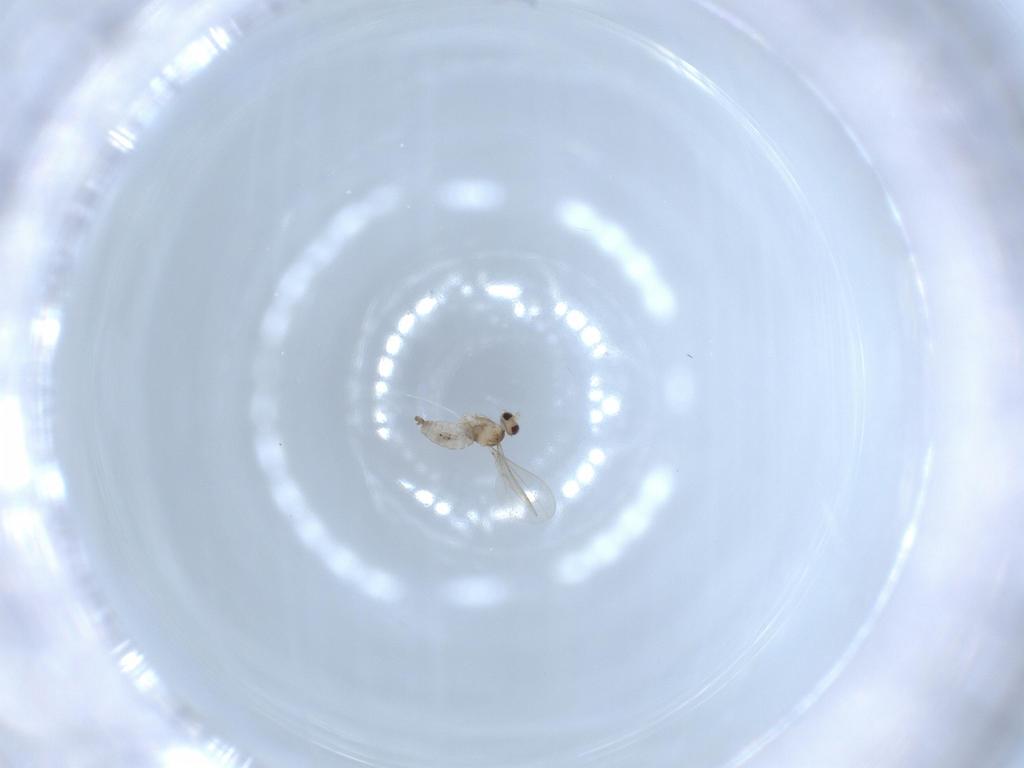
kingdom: Animalia
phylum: Arthropoda
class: Insecta
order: Diptera
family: Cecidomyiidae
